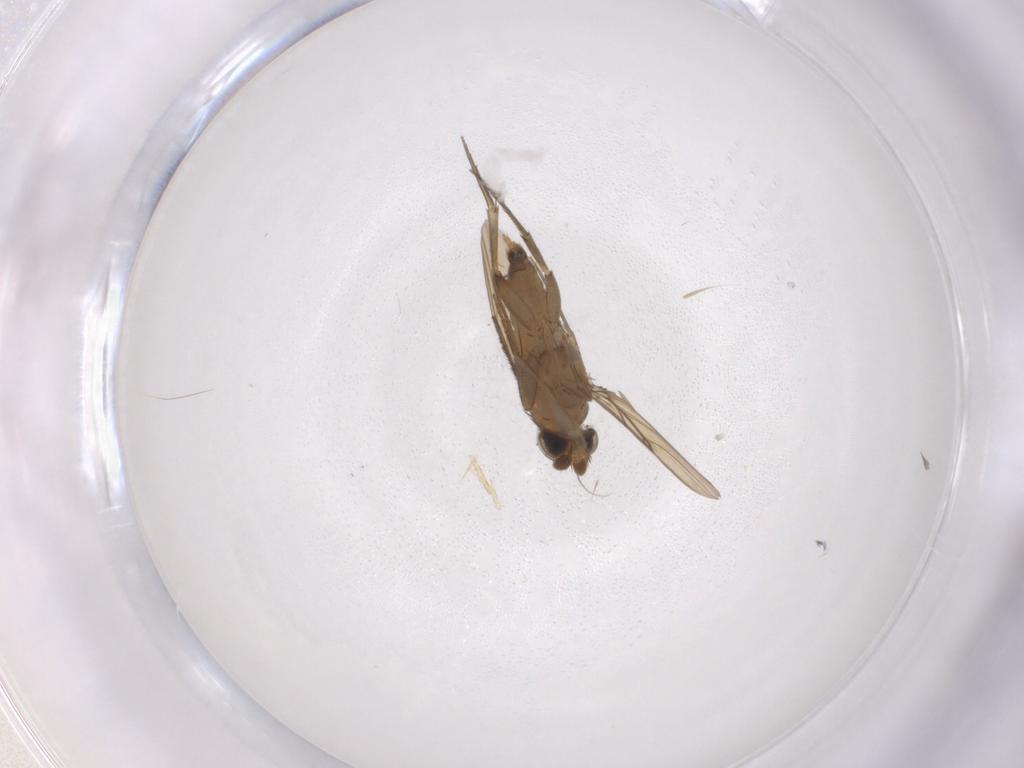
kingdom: Animalia
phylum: Arthropoda
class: Insecta
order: Diptera
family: Phoridae
